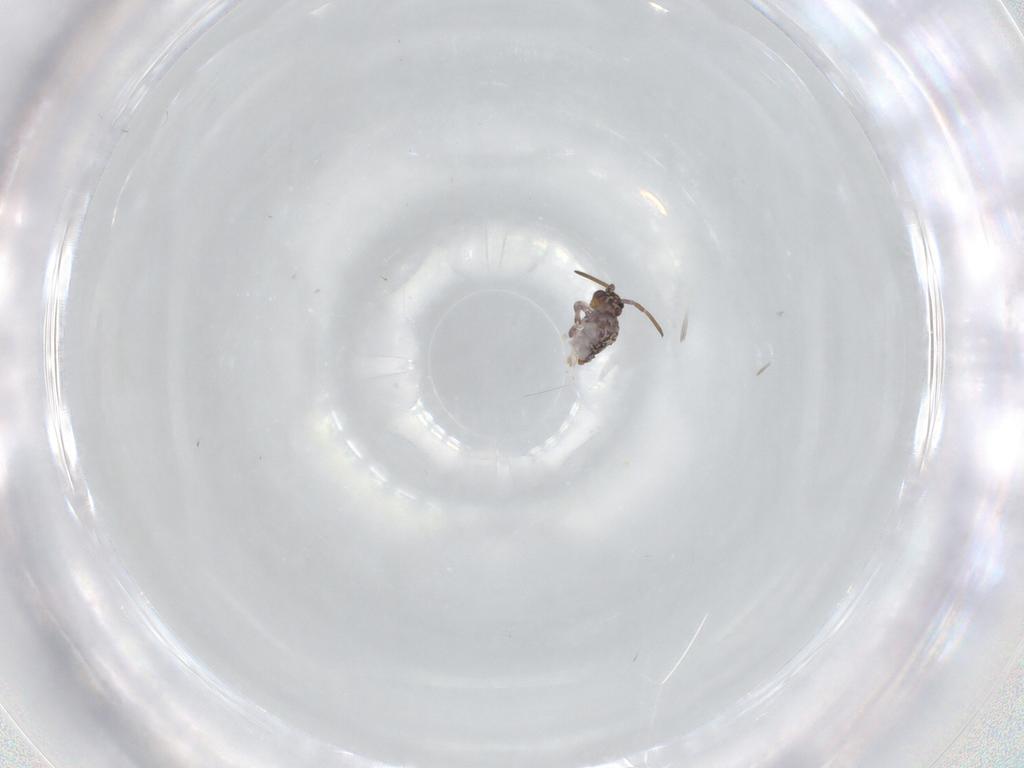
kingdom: Animalia
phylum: Arthropoda
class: Collembola
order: Symphypleona
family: Katiannidae
